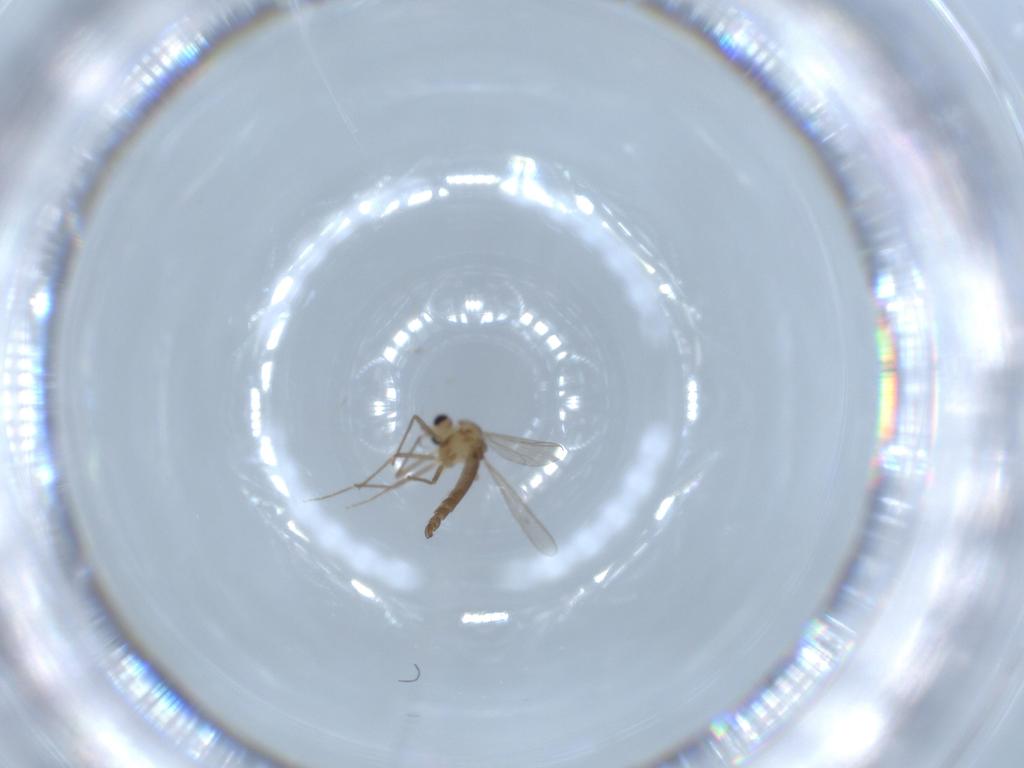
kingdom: Animalia
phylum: Arthropoda
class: Insecta
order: Diptera
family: Chironomidae
